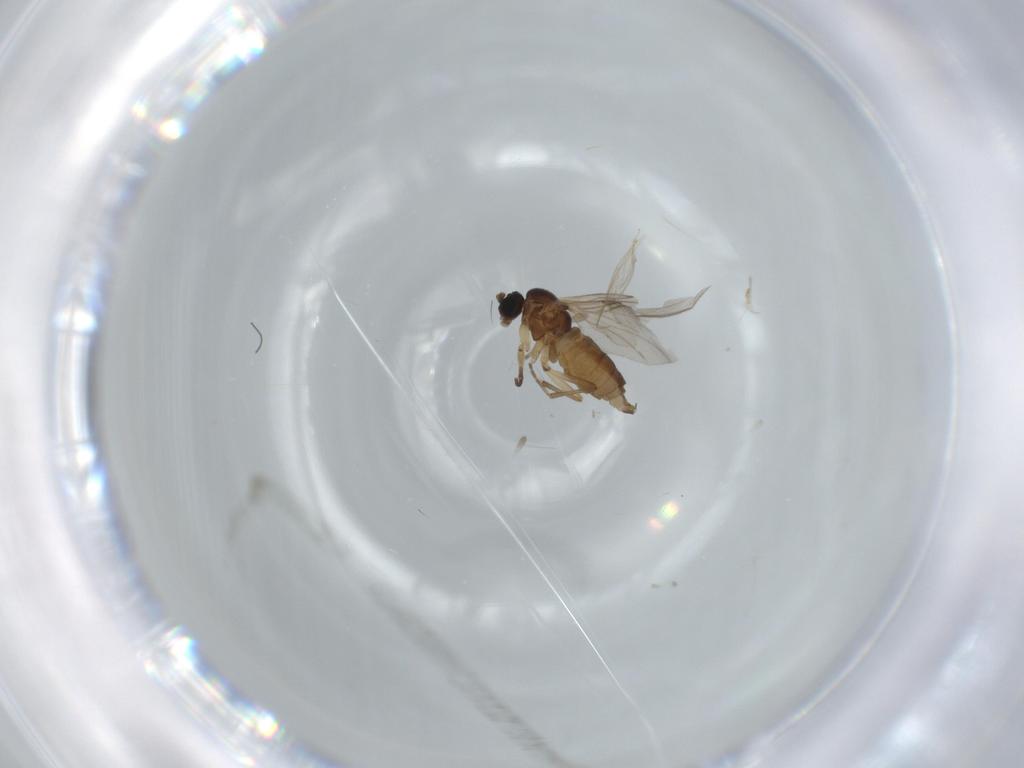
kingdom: Animalia
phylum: Arthropoda
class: Insecta
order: Diptera
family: Sciaridae
